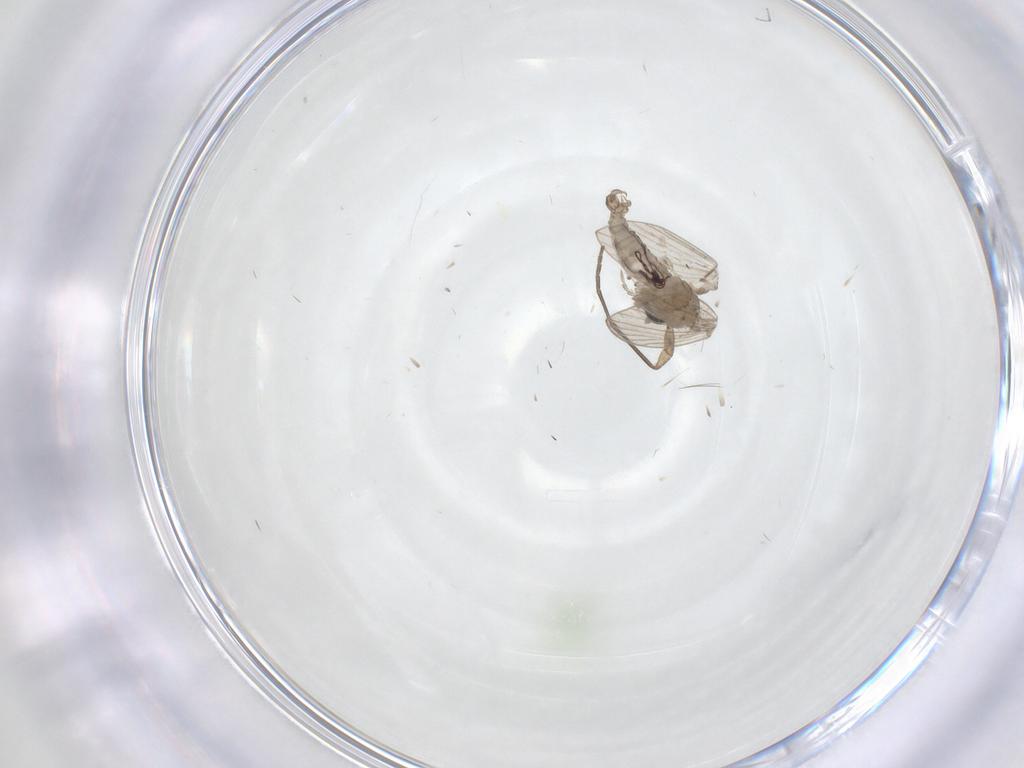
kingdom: Animalia
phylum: Arthropoda
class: Insecta
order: Diptera
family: Psychodidae
